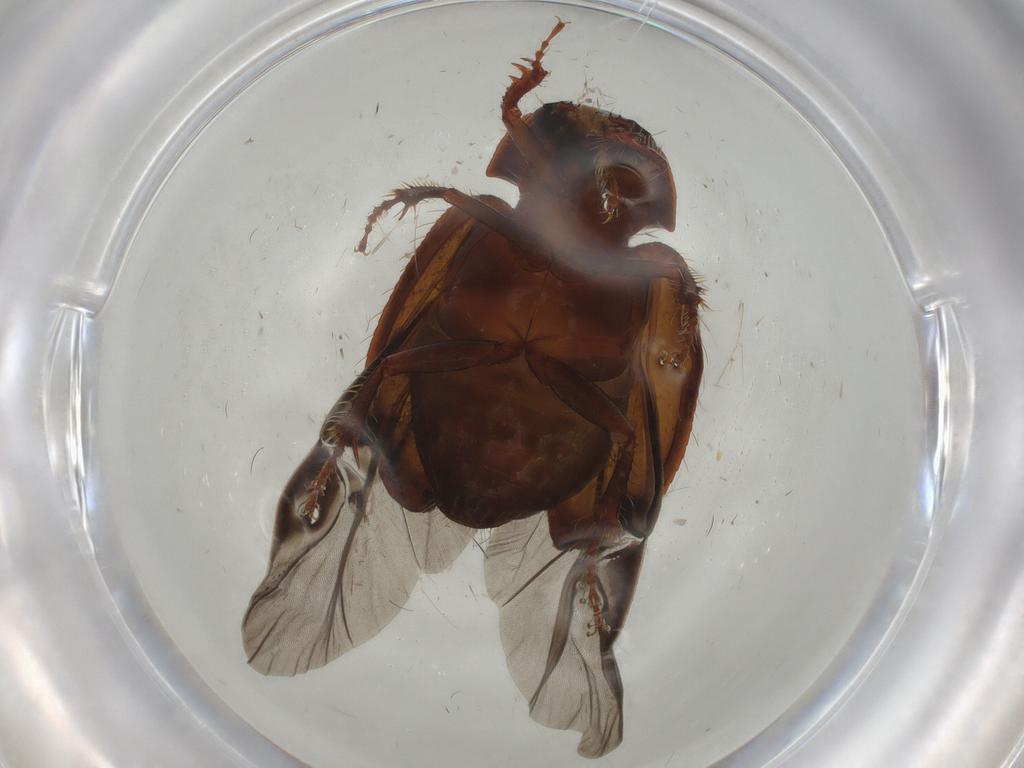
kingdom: Animalia
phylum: Arthropoda
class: Insecta
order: Coleoptera
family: Hybosoridae
